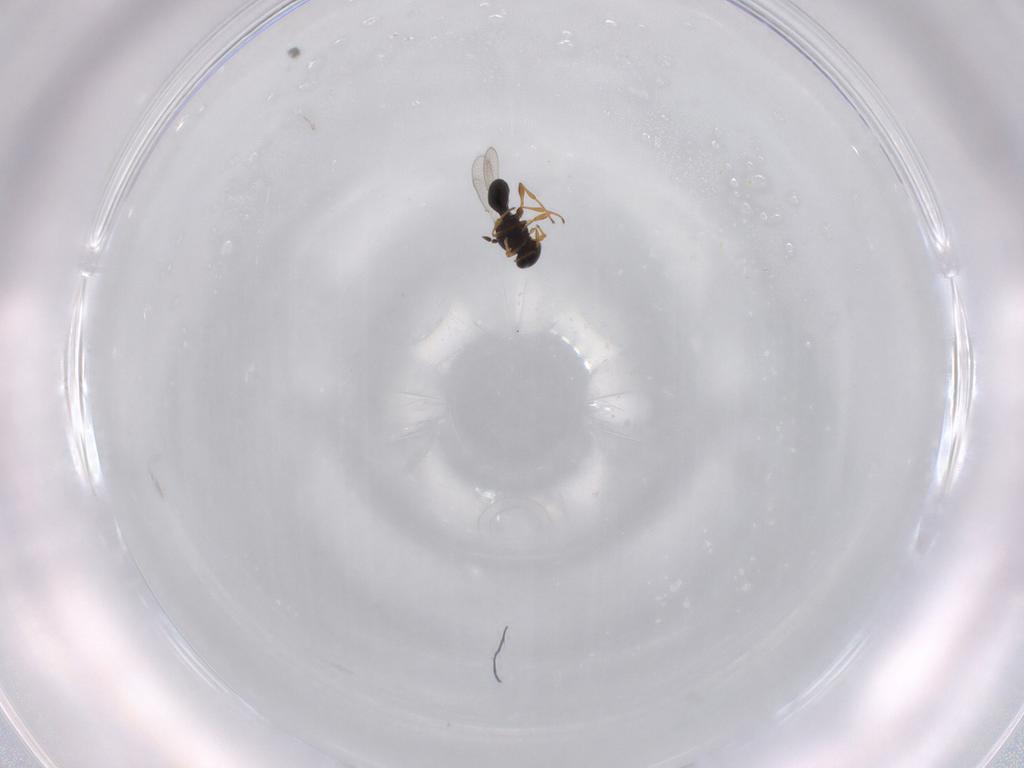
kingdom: Animalia
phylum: Arthropoda
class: Insecta
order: Hymenoptera
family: Platygastridae
